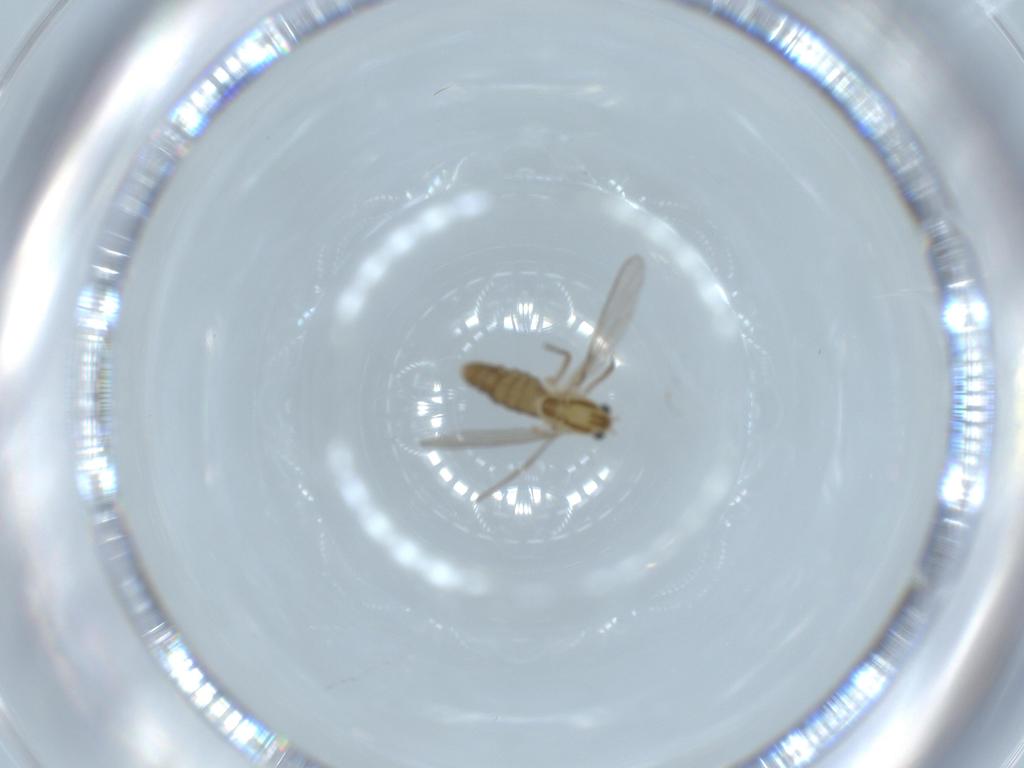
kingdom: Animalia
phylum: Arthropoda
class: Insecta
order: Diptera
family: Chironomidae
